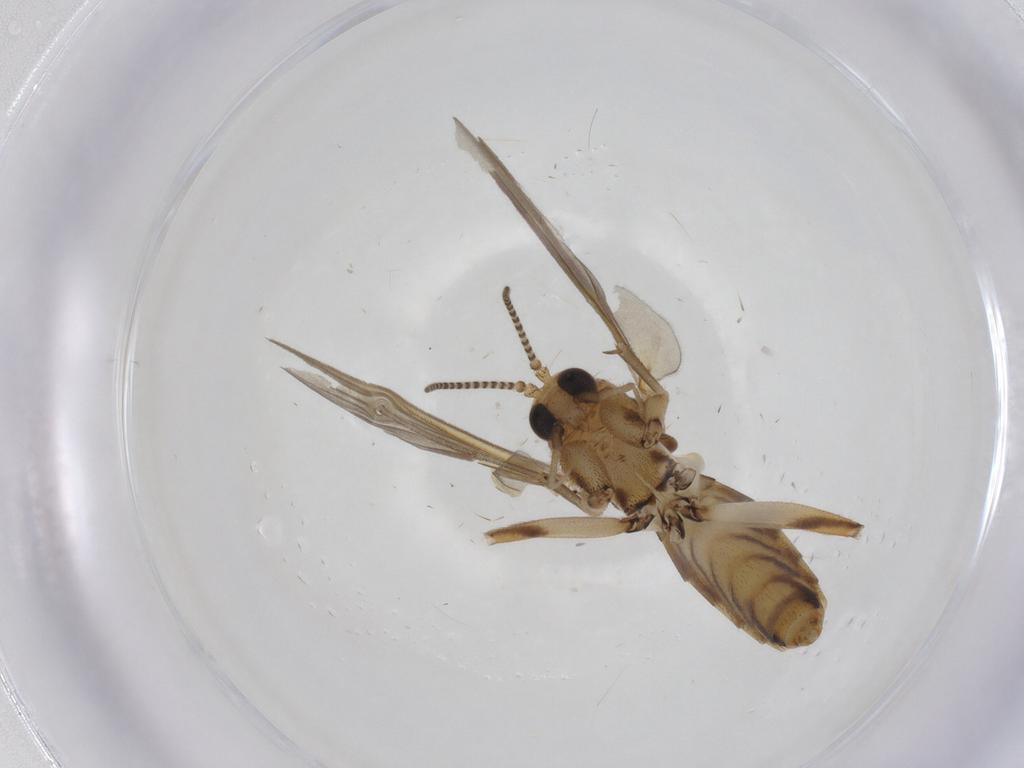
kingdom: Animalia
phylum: Arthropoda
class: Insecta
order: Diptera
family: Mycetophilidae
